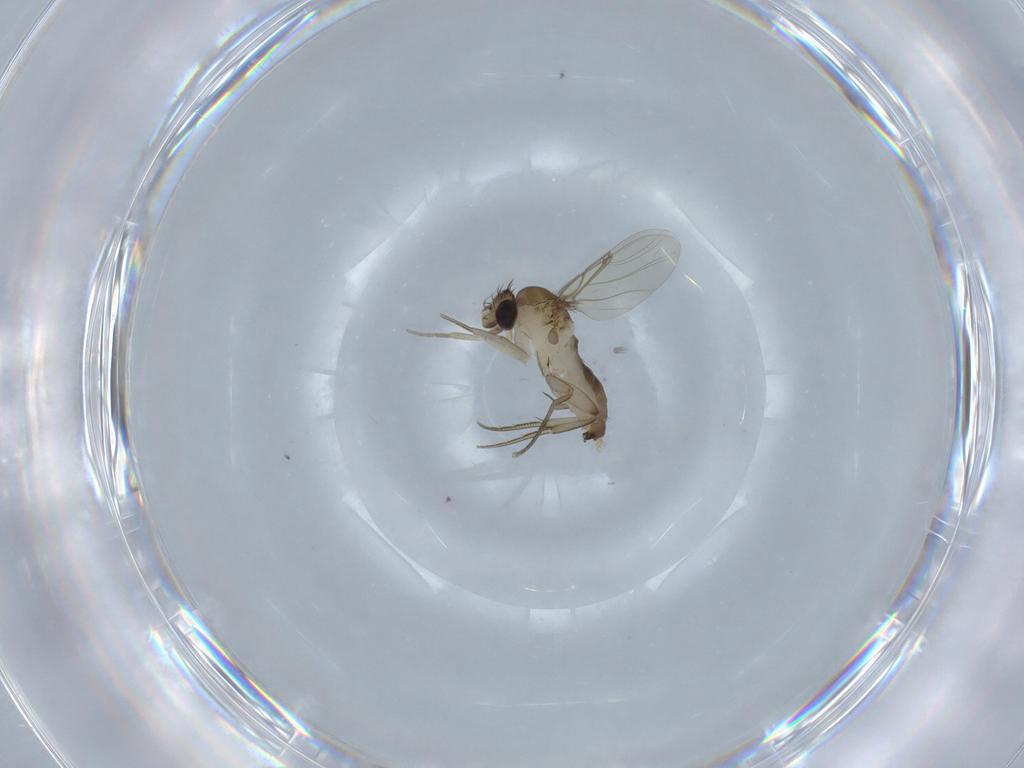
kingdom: Animalia
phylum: Arthropoda
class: Insecta
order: Diptera
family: Phoridae
